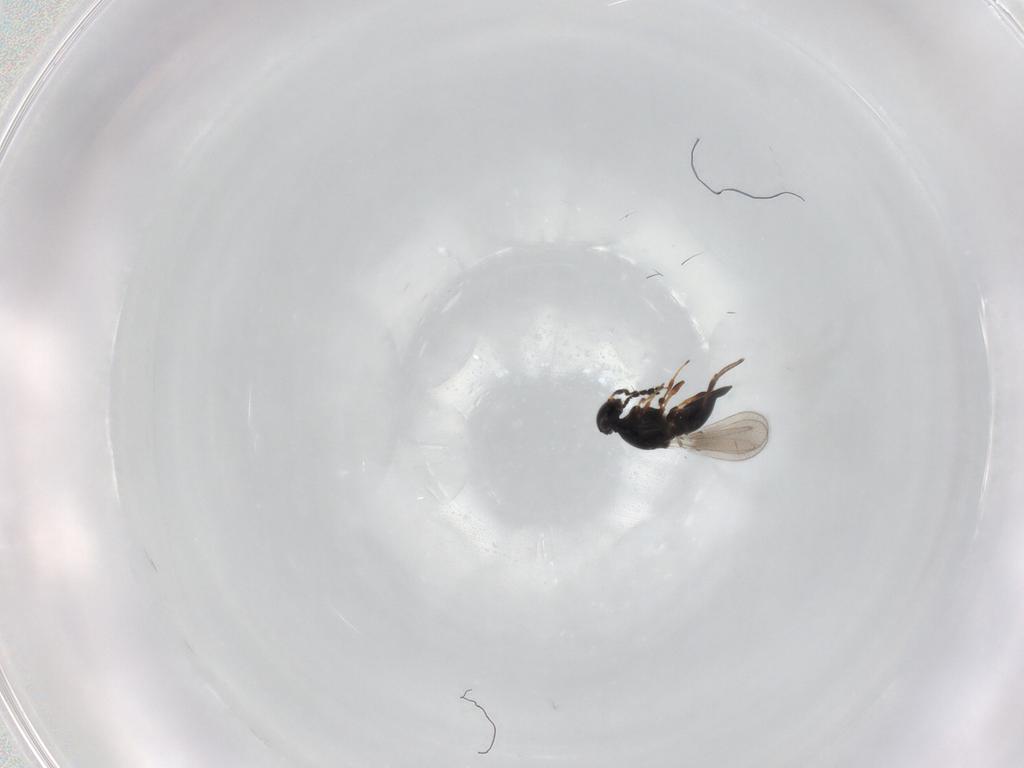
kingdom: Animalia
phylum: Arthropoda
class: Insecta
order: Hymenoptera
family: Platygastridae
